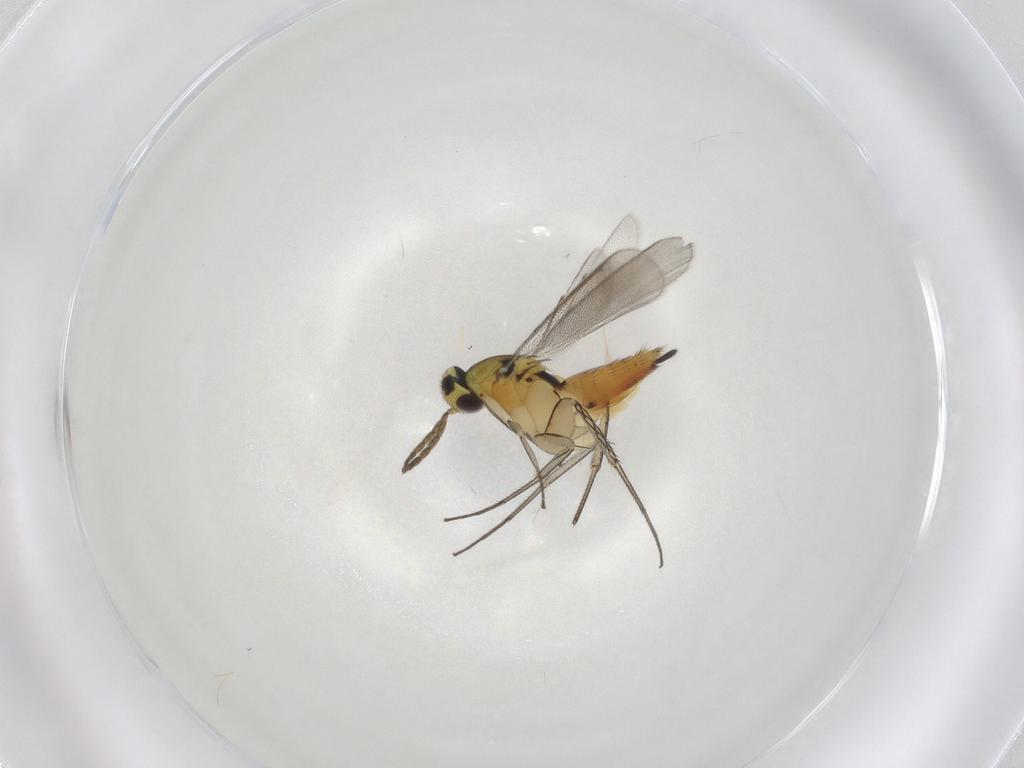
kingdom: Animalia
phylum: Arthropoda
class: Insecta
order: Hymenoptera
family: Eulophidae
